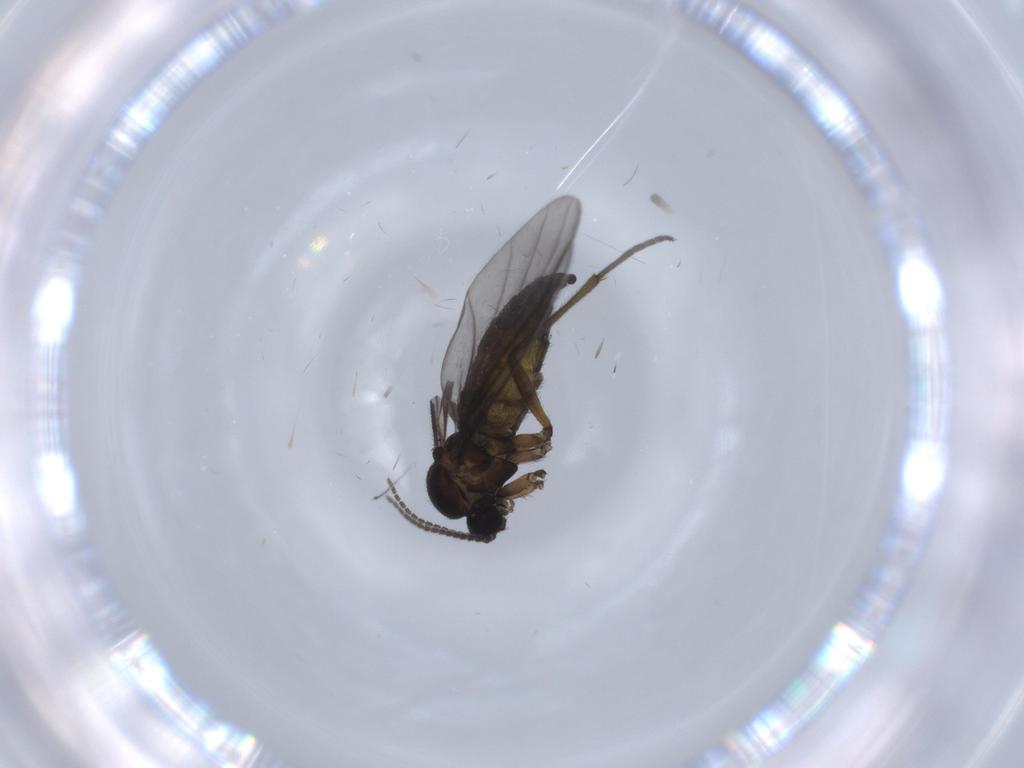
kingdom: Animalia
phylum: Arthropoda
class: Insecta
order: Diptera
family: Sciaridae
